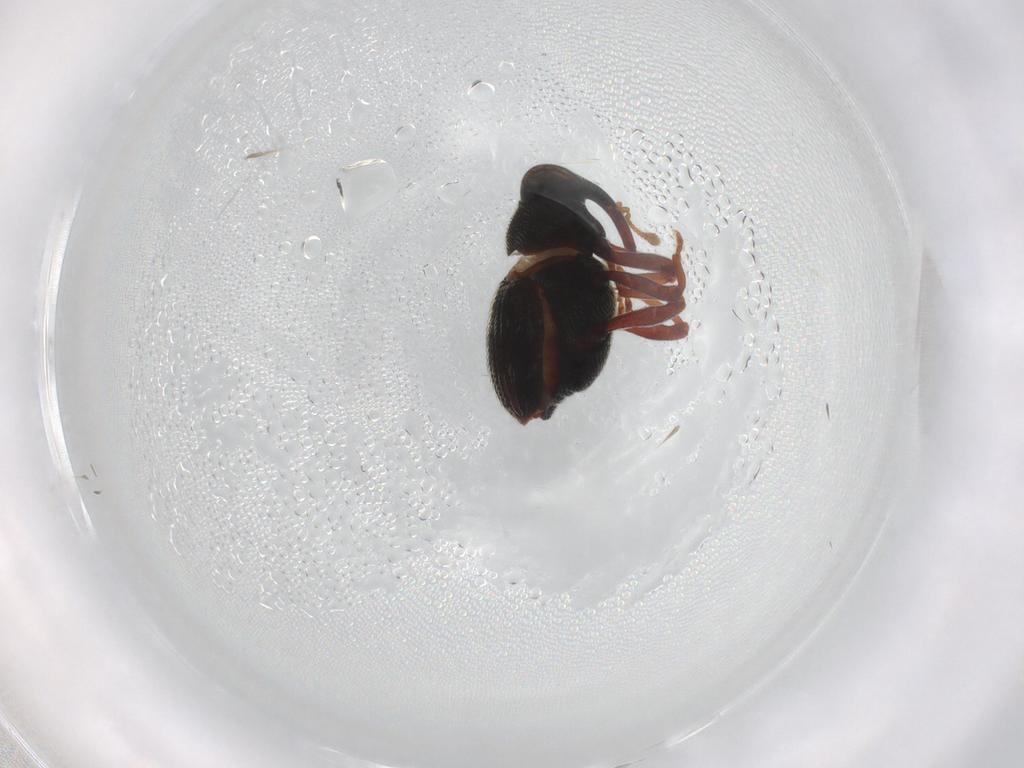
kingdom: Animalia
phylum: Arthropoda
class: Insecta
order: Coleoptera
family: Curculionidae
